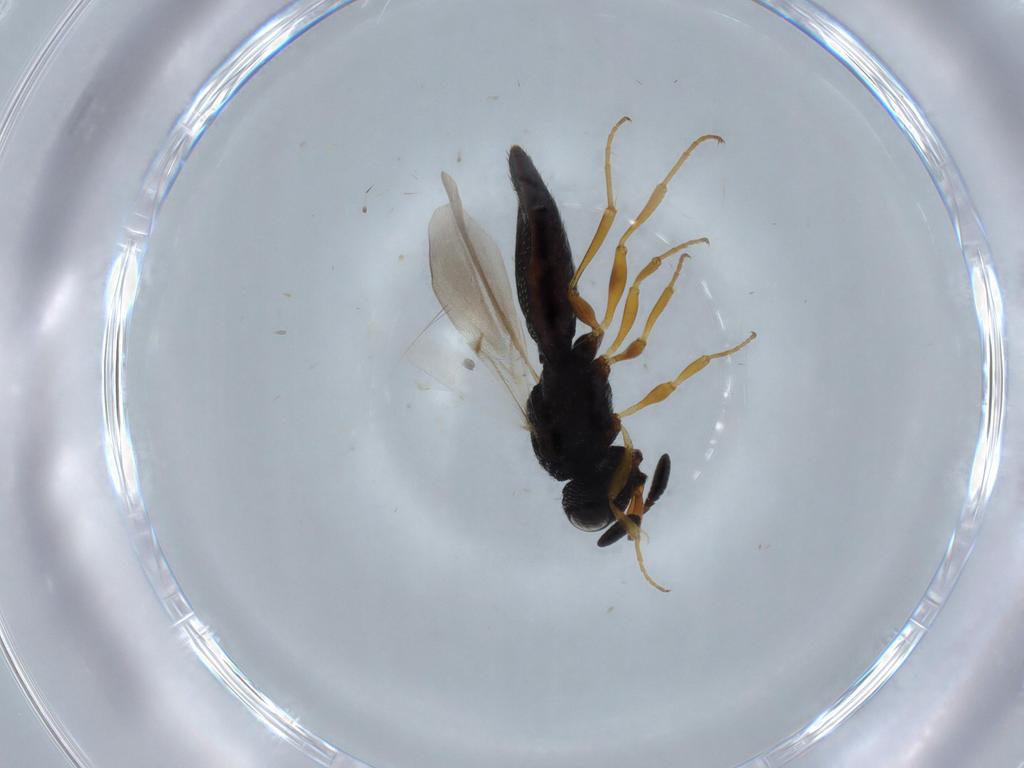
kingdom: Animalia
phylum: Arthropoda
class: Insecta
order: Hymenoptera
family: Scelionidae
